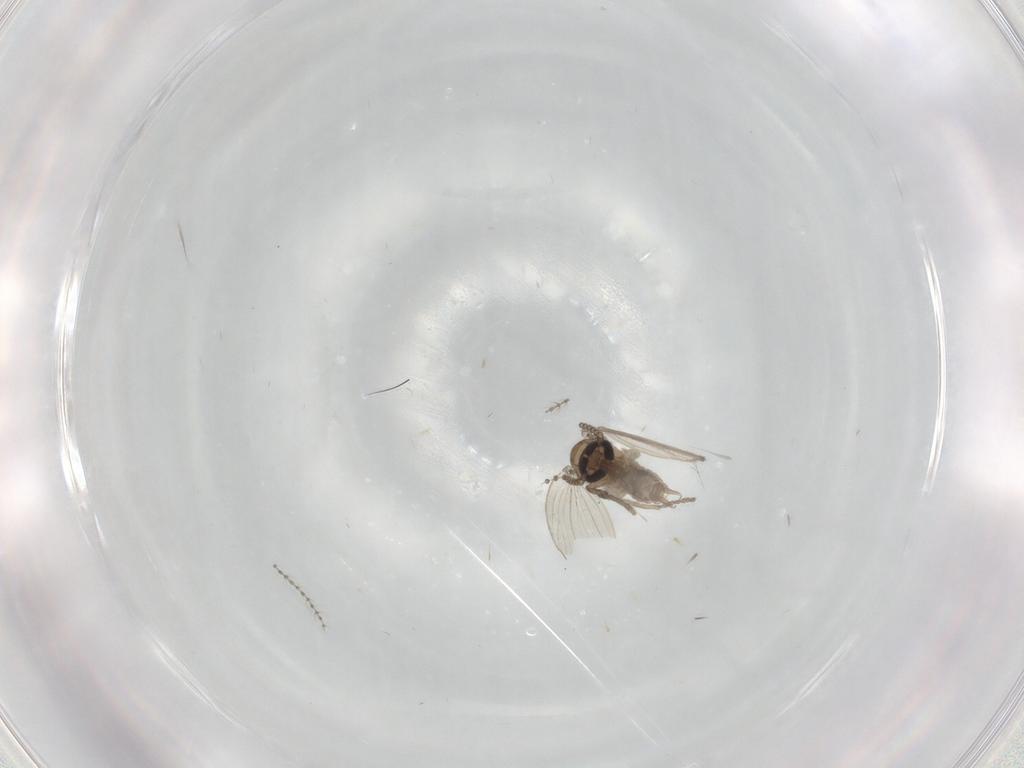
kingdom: Animalia
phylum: Arthropoda
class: Insecta
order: Diptera
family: Psychodidae
